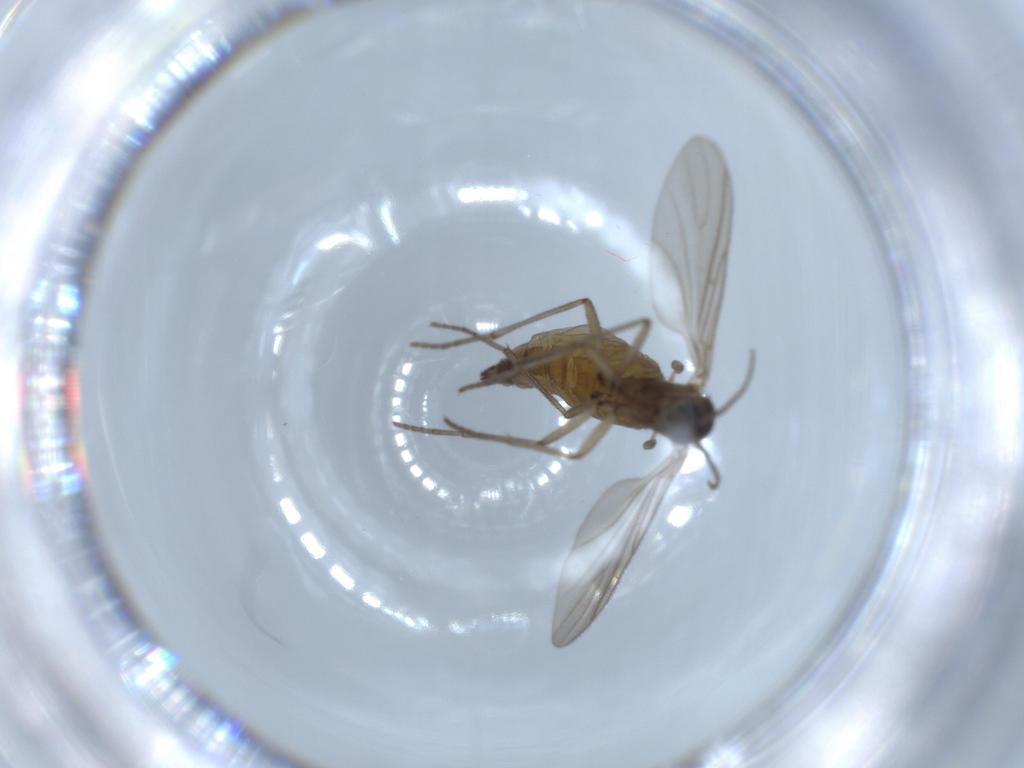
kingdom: Animalia
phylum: Arthropoda
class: Insecta
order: Diptera
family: Sciaridae
